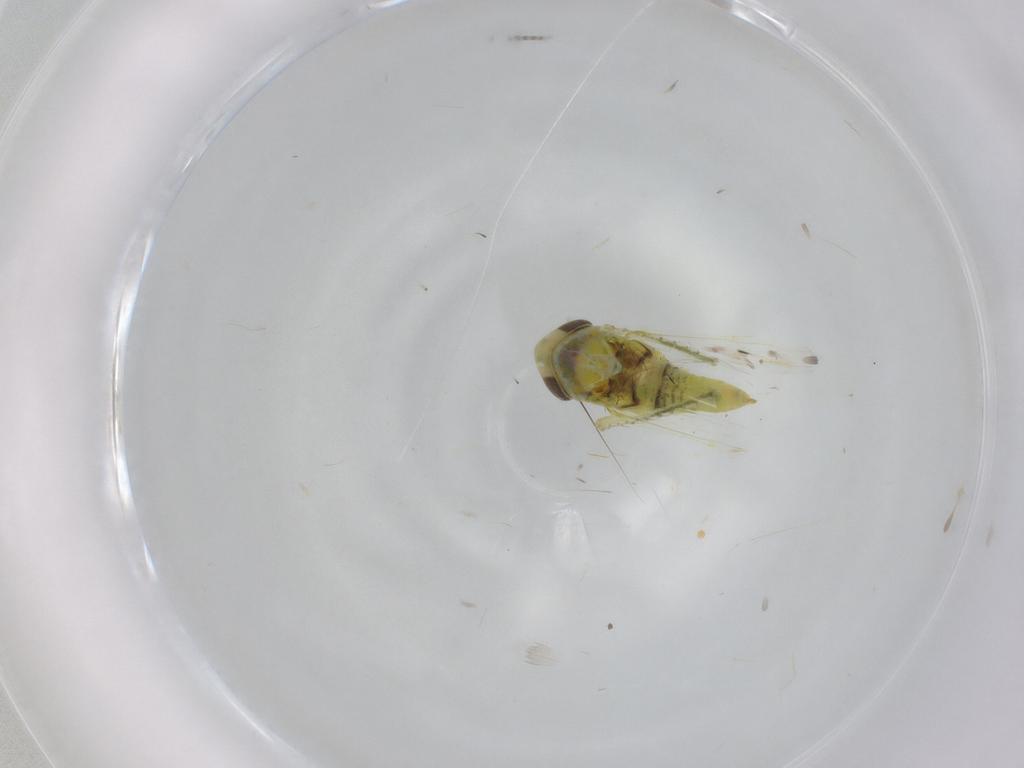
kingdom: Animalia
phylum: Arthropoda
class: Insecta
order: Hemiptera
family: Cicadellidae
